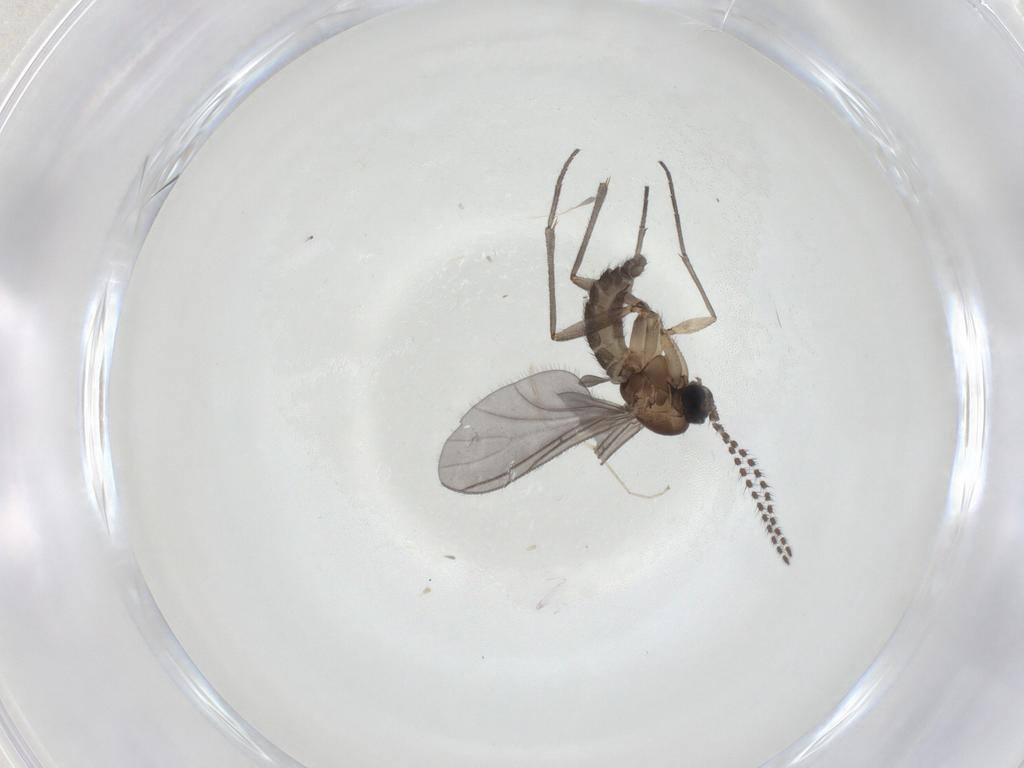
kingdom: Animalia
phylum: Arthropoda
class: Insecta
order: Diptera
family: Sciaridae
